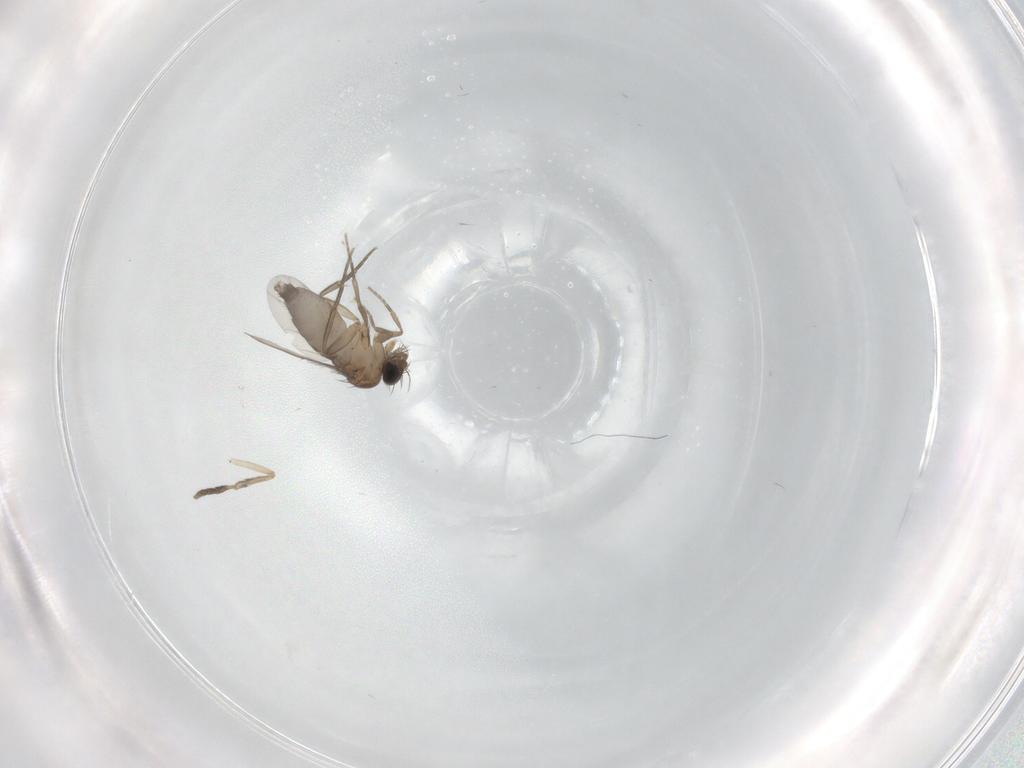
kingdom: Animalia
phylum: Arthropoda
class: Insecta
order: Diptera
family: Phoridae
